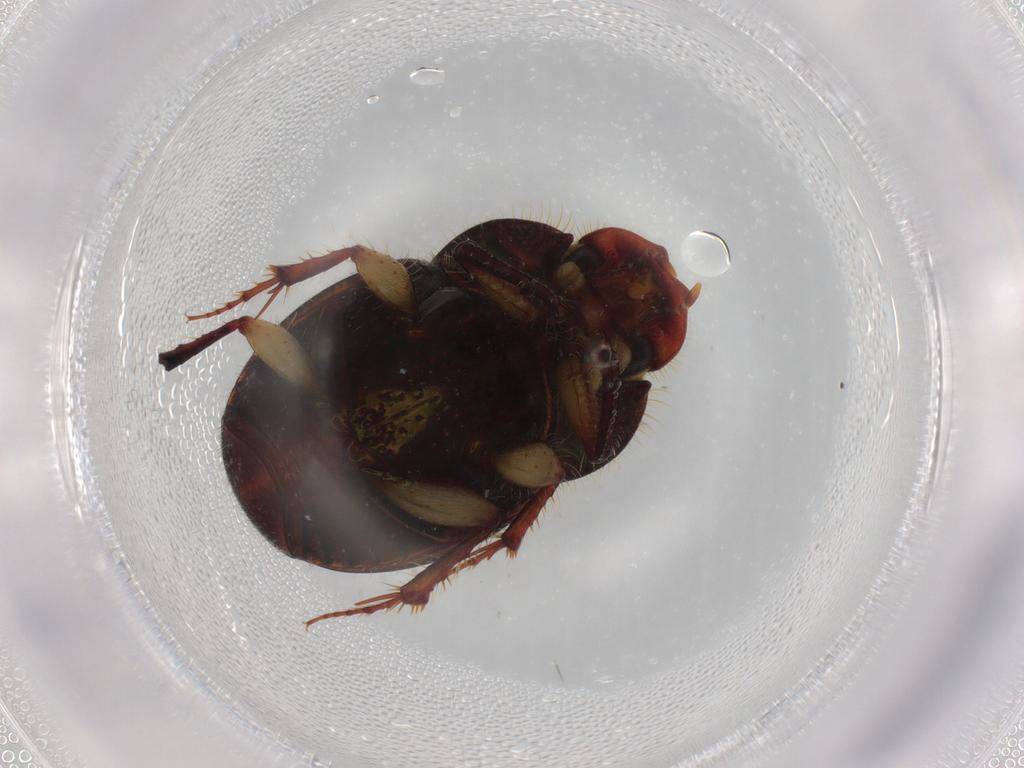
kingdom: Animalia
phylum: Arthropoda
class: Insecta
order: Coleoptera
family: Scarabaeidae
